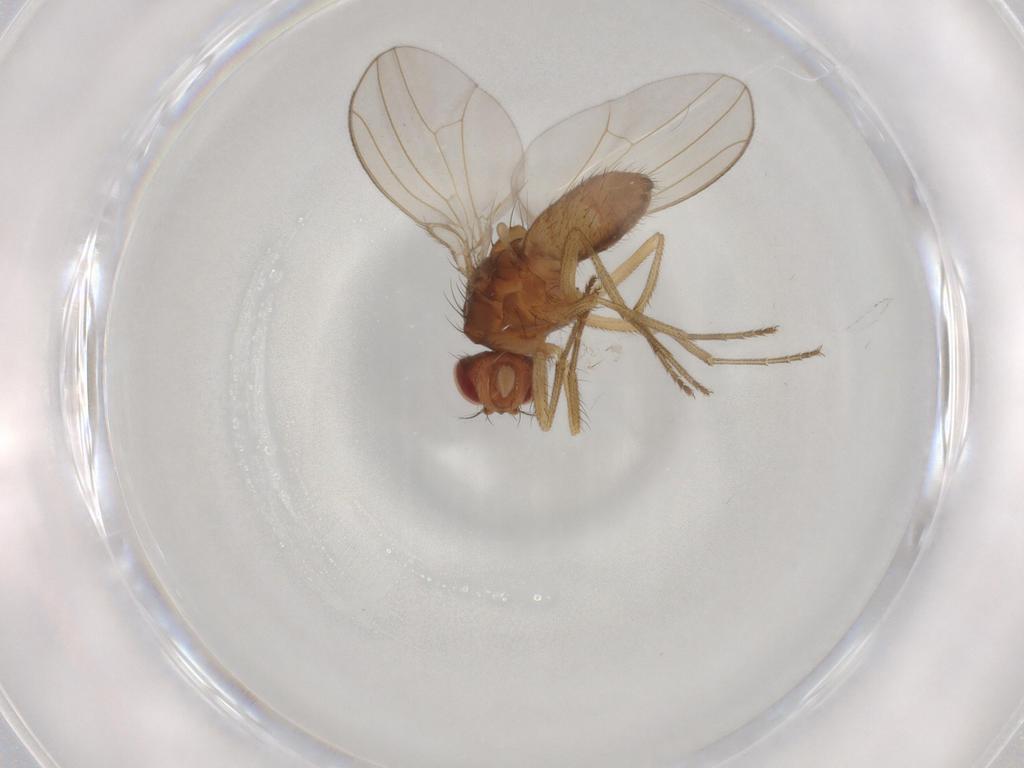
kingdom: Animalia
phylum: Arthropoda
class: Insecta
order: Diptera
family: Drosophilidae
